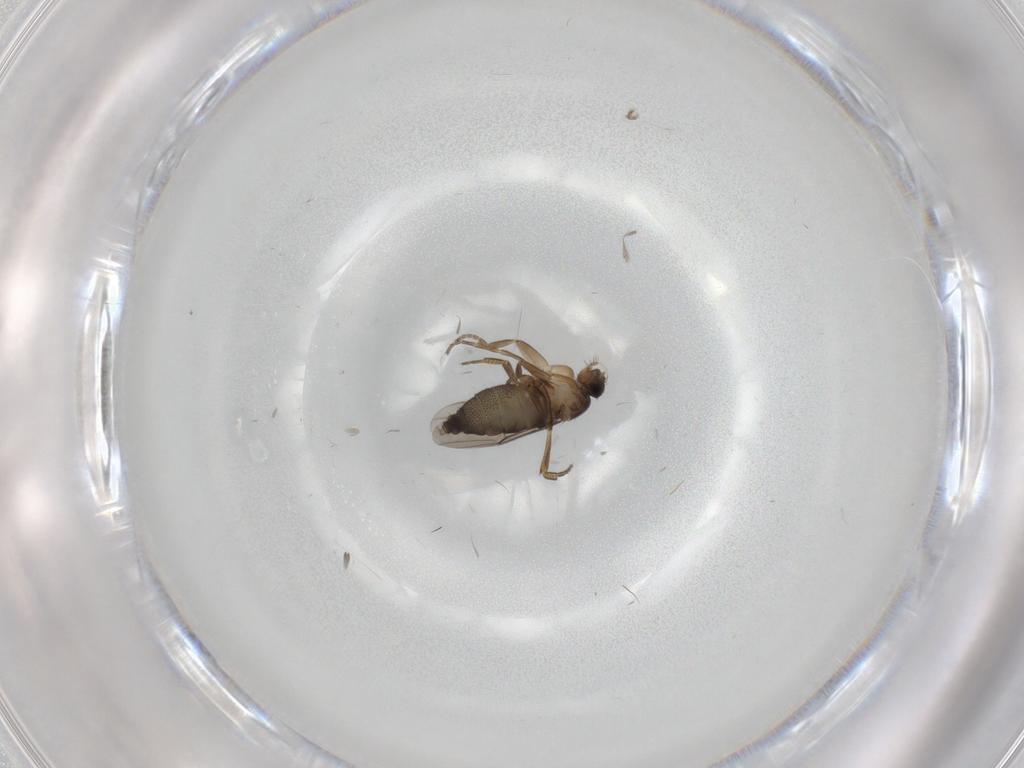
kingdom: Animalia
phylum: Arthropoda
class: Insecta
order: Diptera
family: Phoridae
